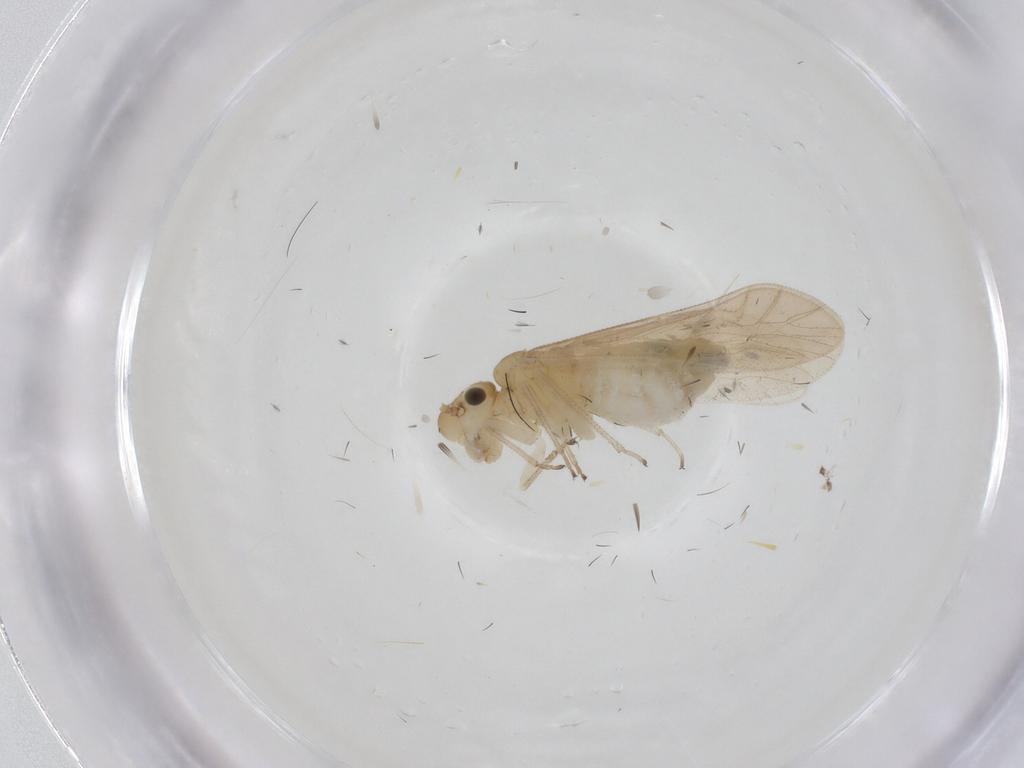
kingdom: Animalia
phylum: Arthropoda
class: Insecta
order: Psocodea
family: Caeciliusidae
